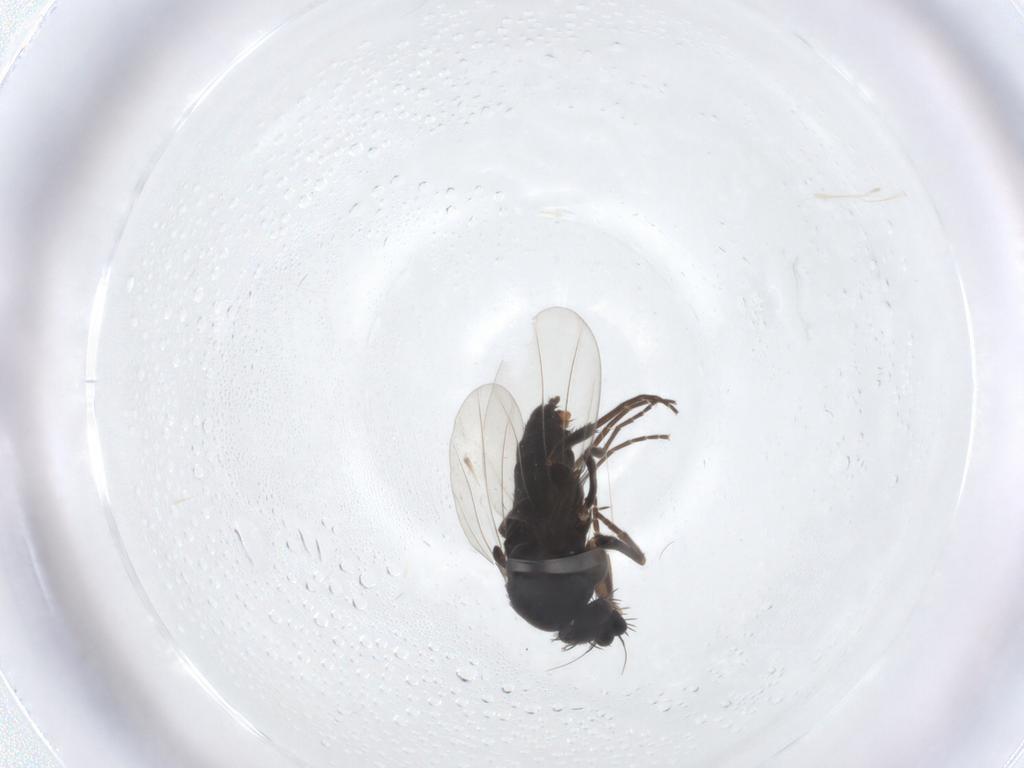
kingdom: Animalia
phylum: Arthropoda
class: Insecta
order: Diptera
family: Phoridae
